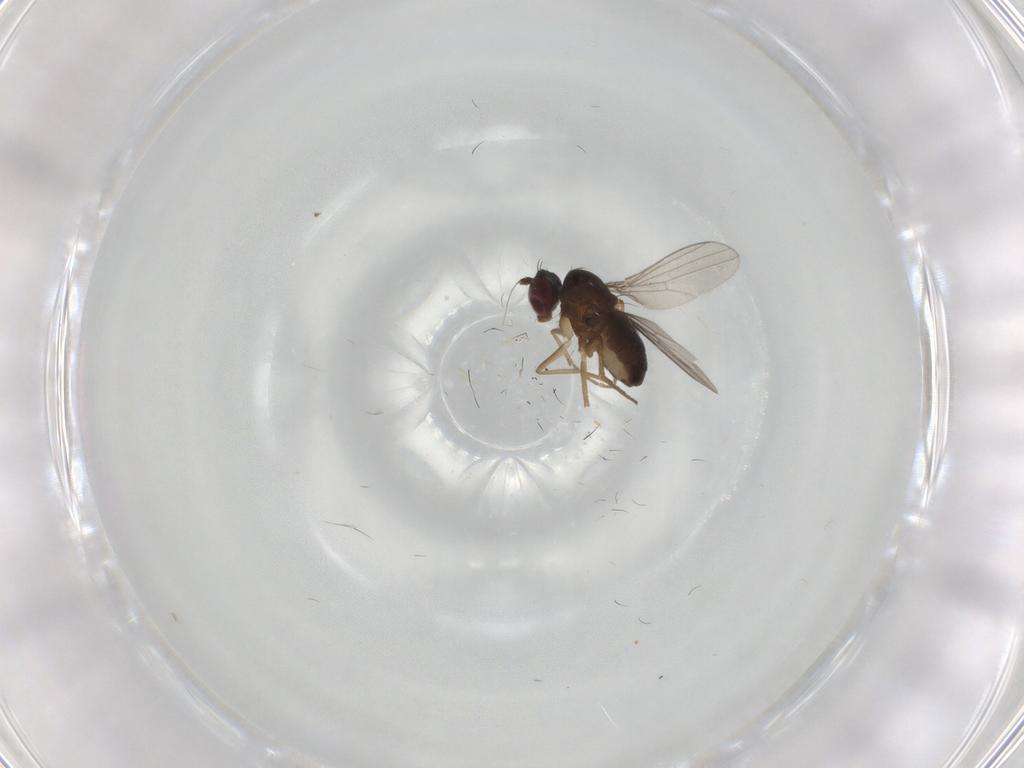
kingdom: Animalia
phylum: Arthropoda
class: Insecta
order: Diptera
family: Dolichopodidae
